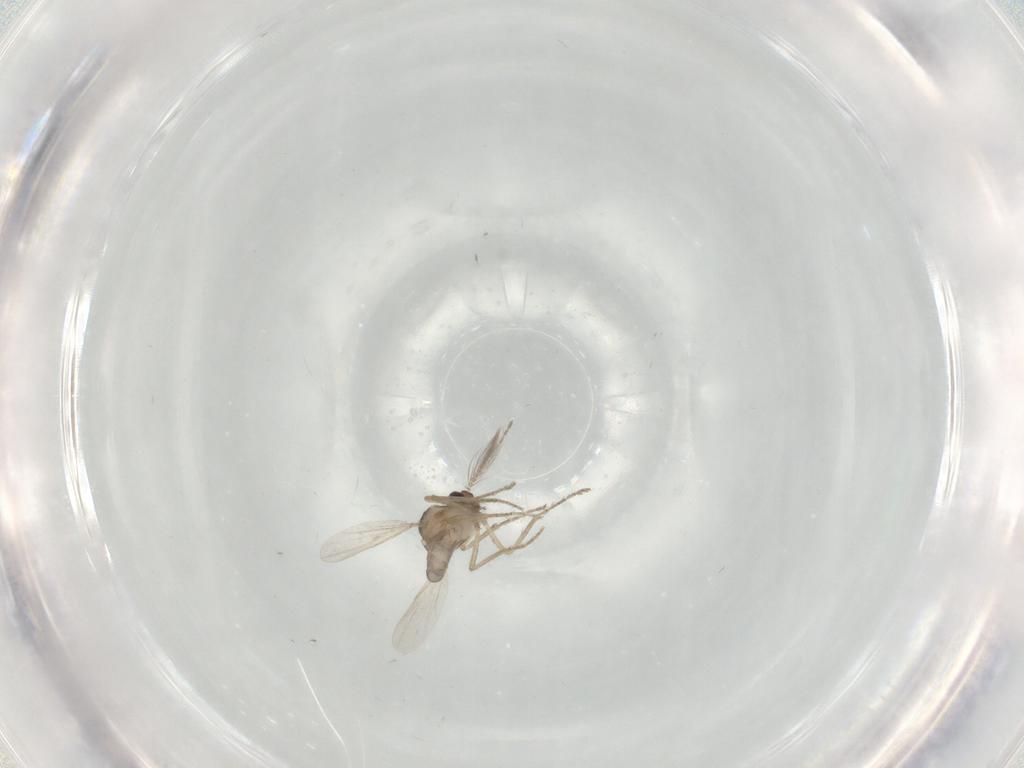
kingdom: Animalia
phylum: Arthropoda
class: Insecta
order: Diptera
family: Ceratopogonidae
